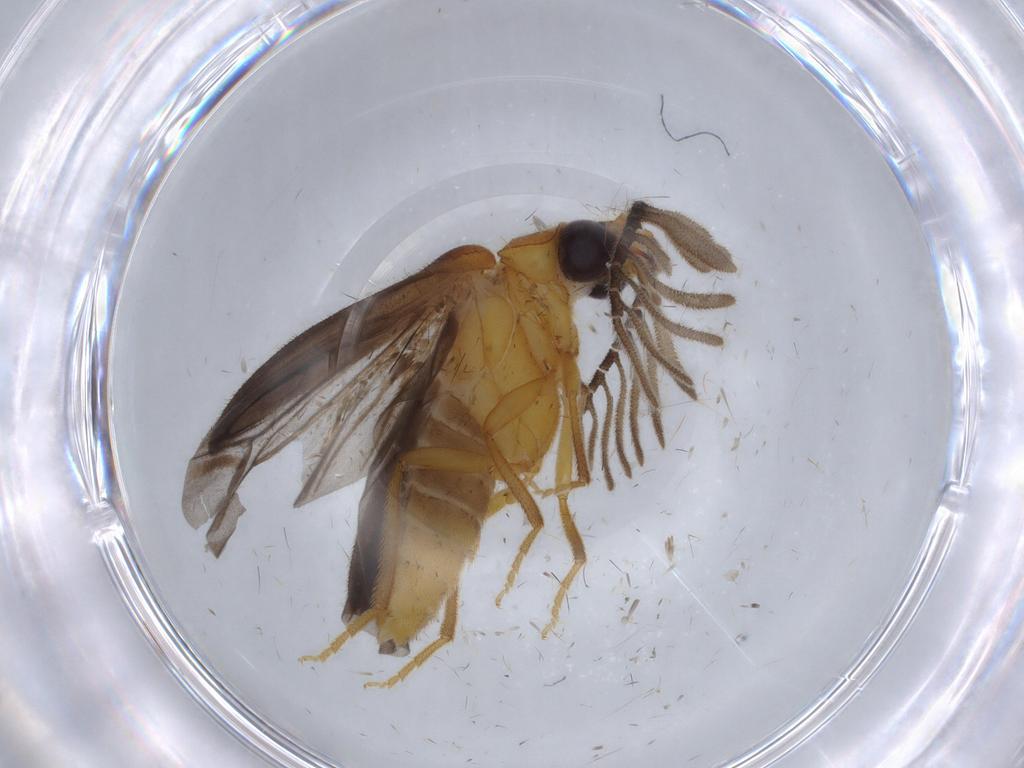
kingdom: Animalia
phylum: Arthropoda
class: Insecta
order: Coleoptera
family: Lampyridae
